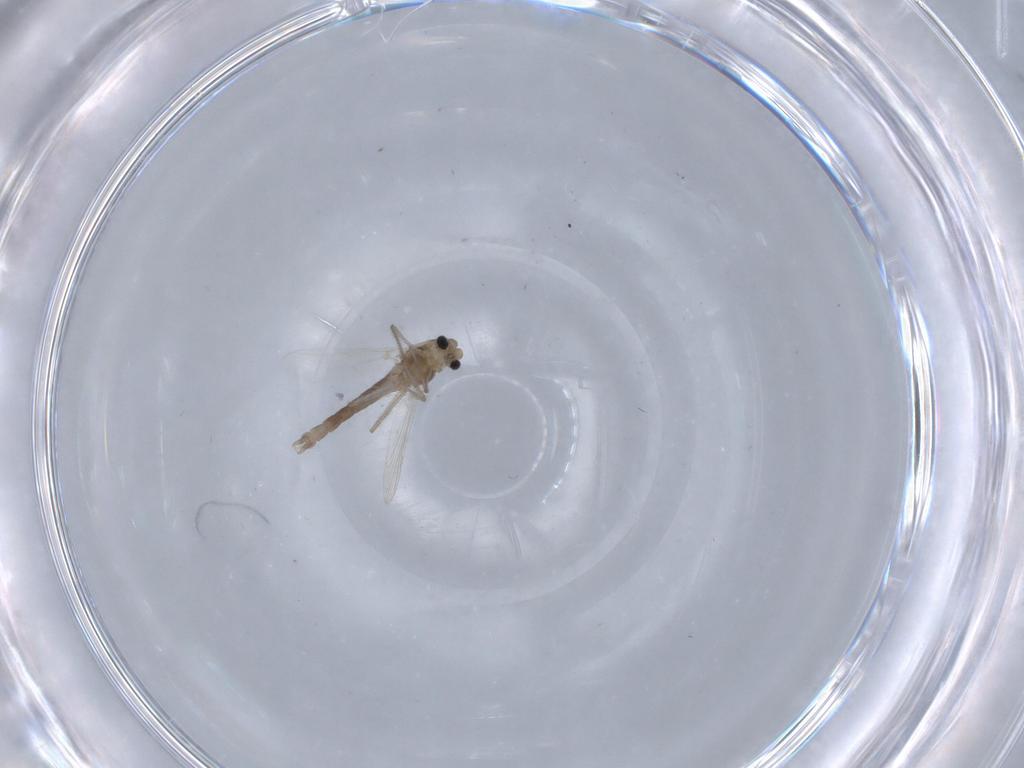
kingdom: Animalia
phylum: Arthropoda
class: Insecta
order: Diptera
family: Chironomidae
